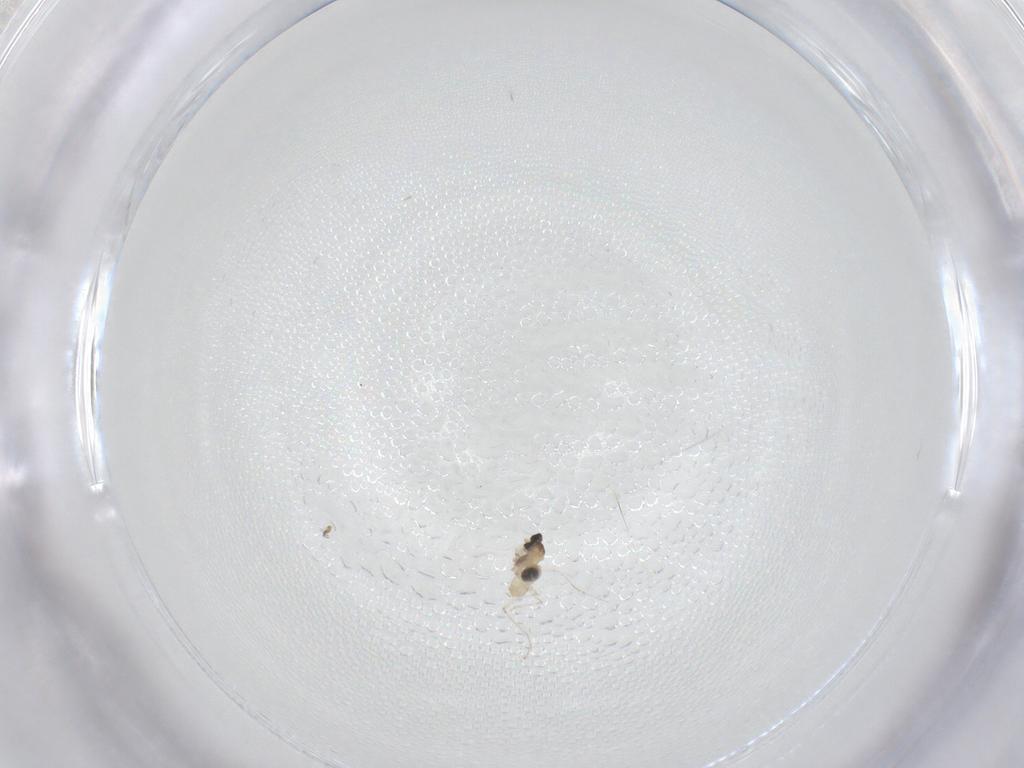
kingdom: Animalia
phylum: Arthropoda
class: Insecta
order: Diptera
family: Cecidomyiidae
